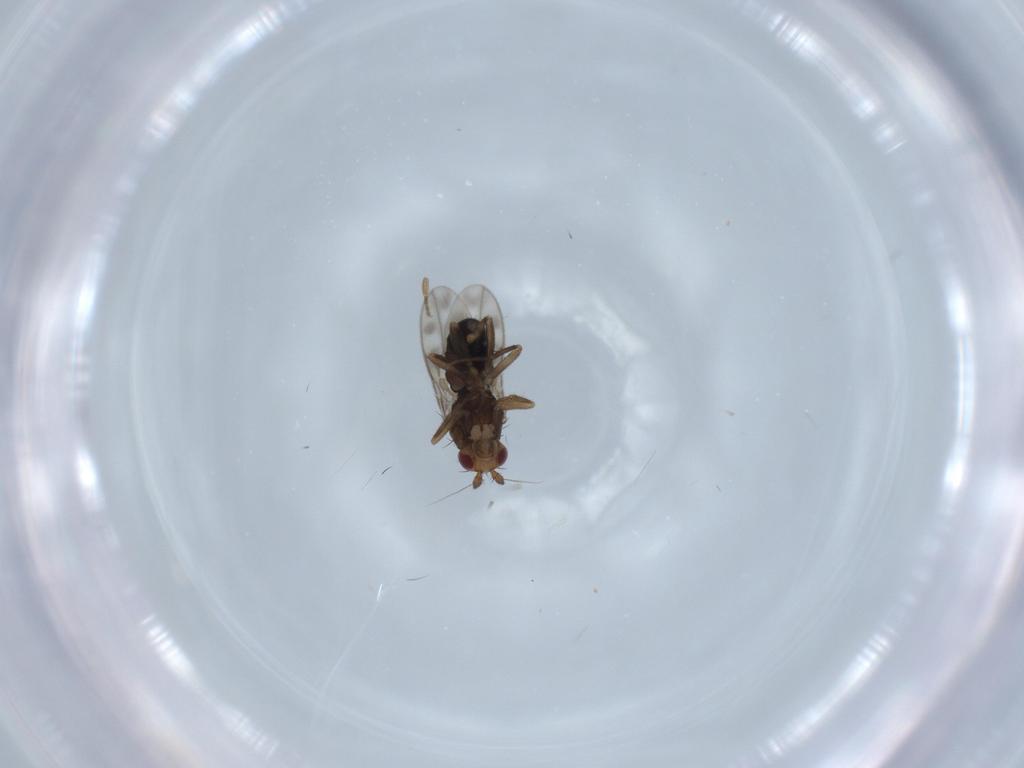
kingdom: Animalia
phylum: Arthropoda
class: Insecta
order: Diptera
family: Sphaeroceridae
